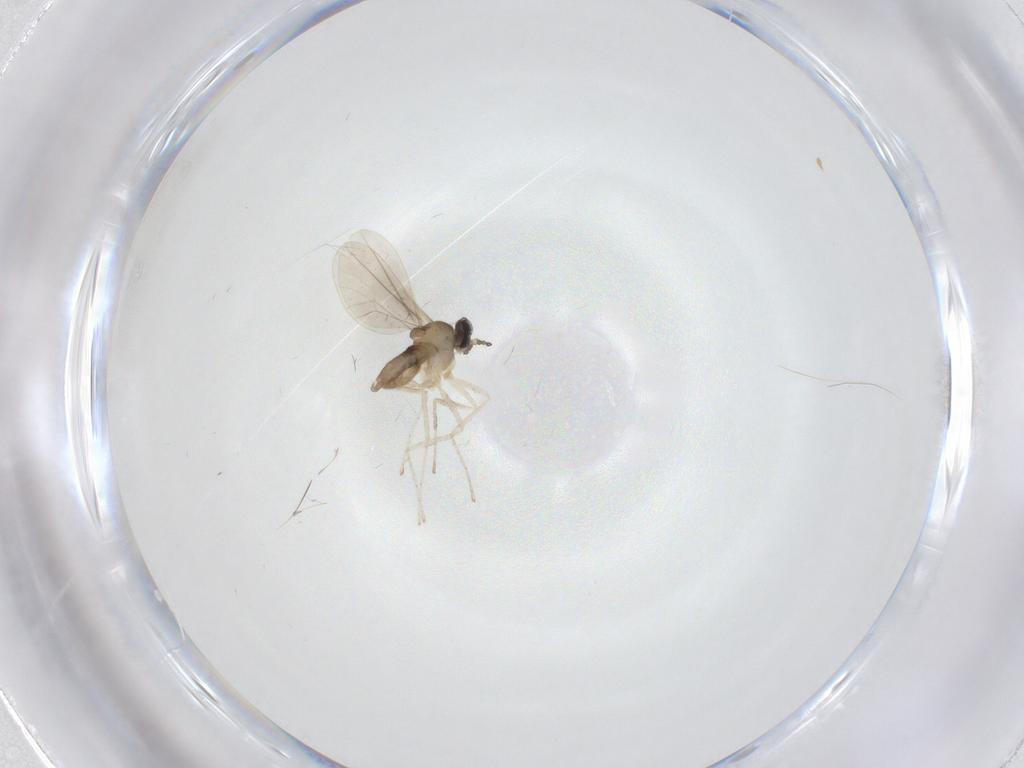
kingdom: Animalia
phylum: Arthropoda
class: Insecta
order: Diptera
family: Cecidomyiidae
